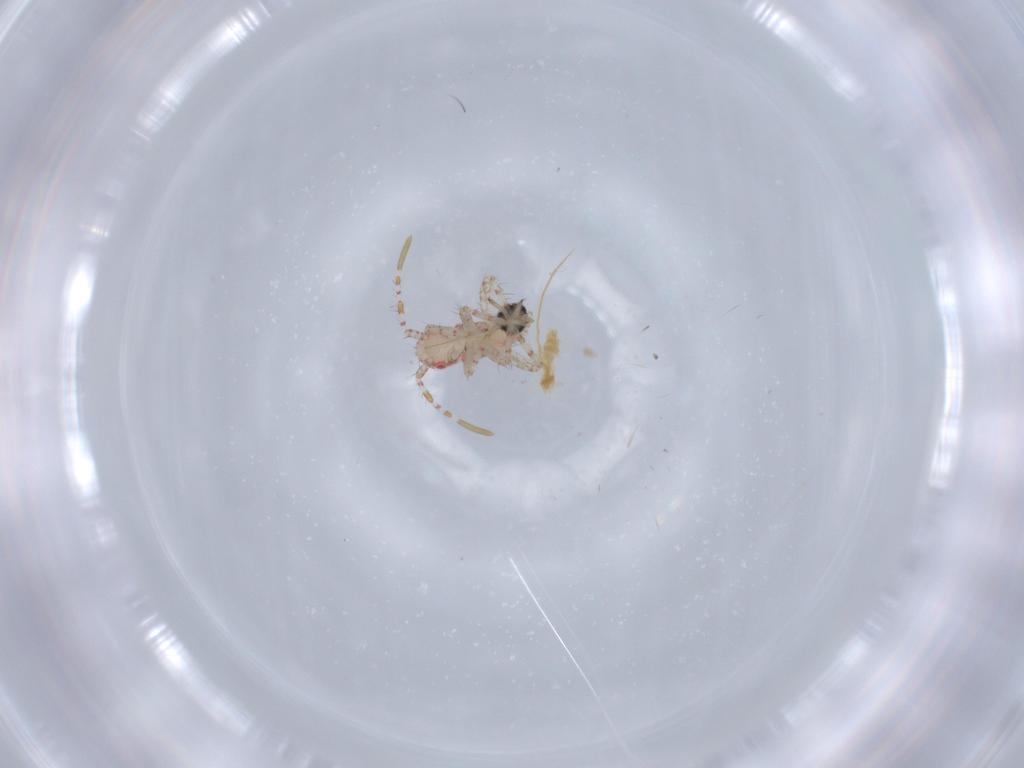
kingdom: Animalia
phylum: Arthropoda
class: Insecta
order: Hemiptera
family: Miridae
